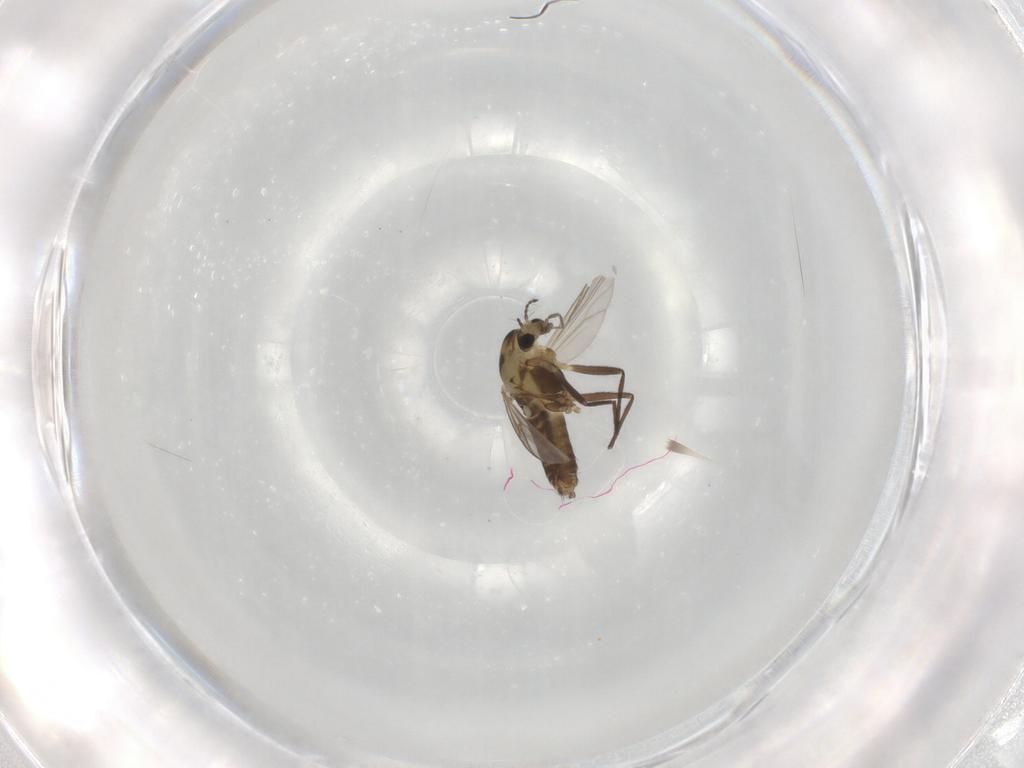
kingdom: Animalia
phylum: Arthropoda
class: Insecta
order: Diptera
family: Chironomidae
